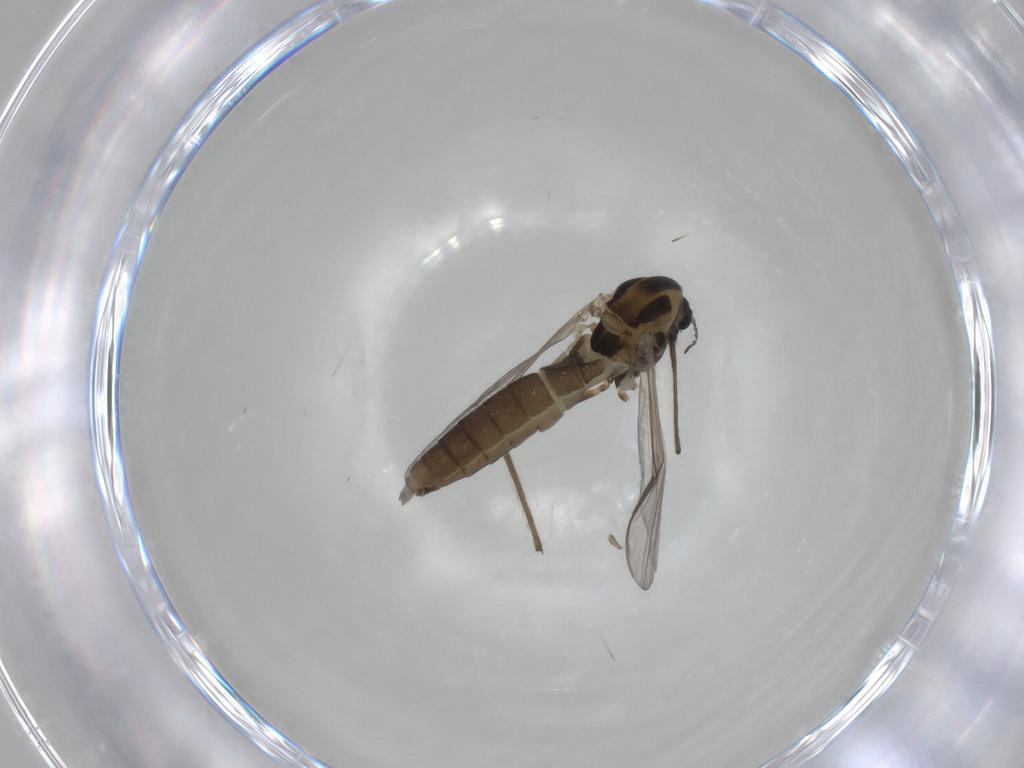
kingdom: Animalia
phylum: Arthropoda
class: Insecta
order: Diptera
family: Chironomidae
